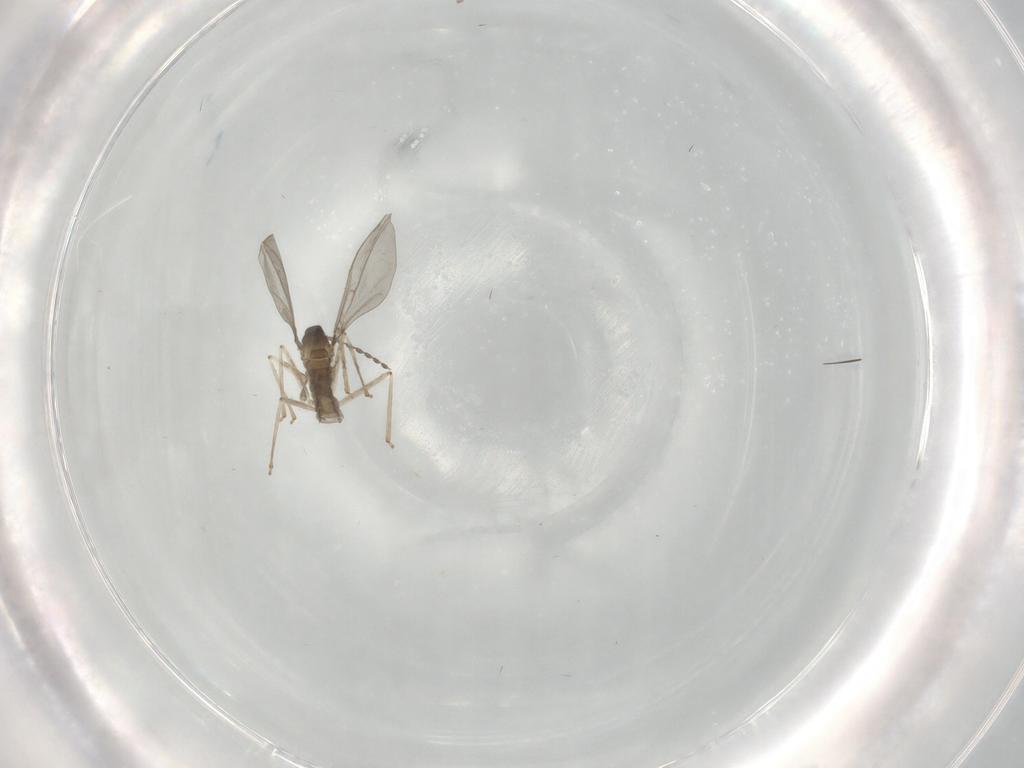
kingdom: Animalia
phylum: Arthropoda
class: Insecta
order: Diptera
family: Cecidomyiidae
